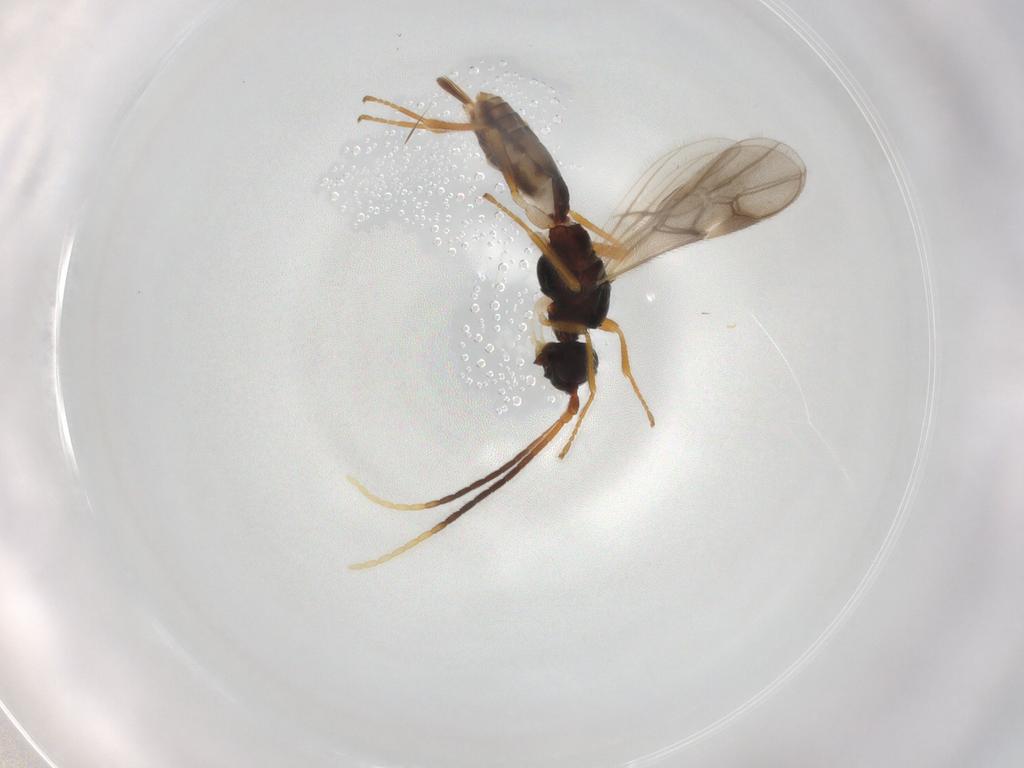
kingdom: Animalia
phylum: Arthropoda
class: Insecta
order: Hymenoptera
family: Braconidae
